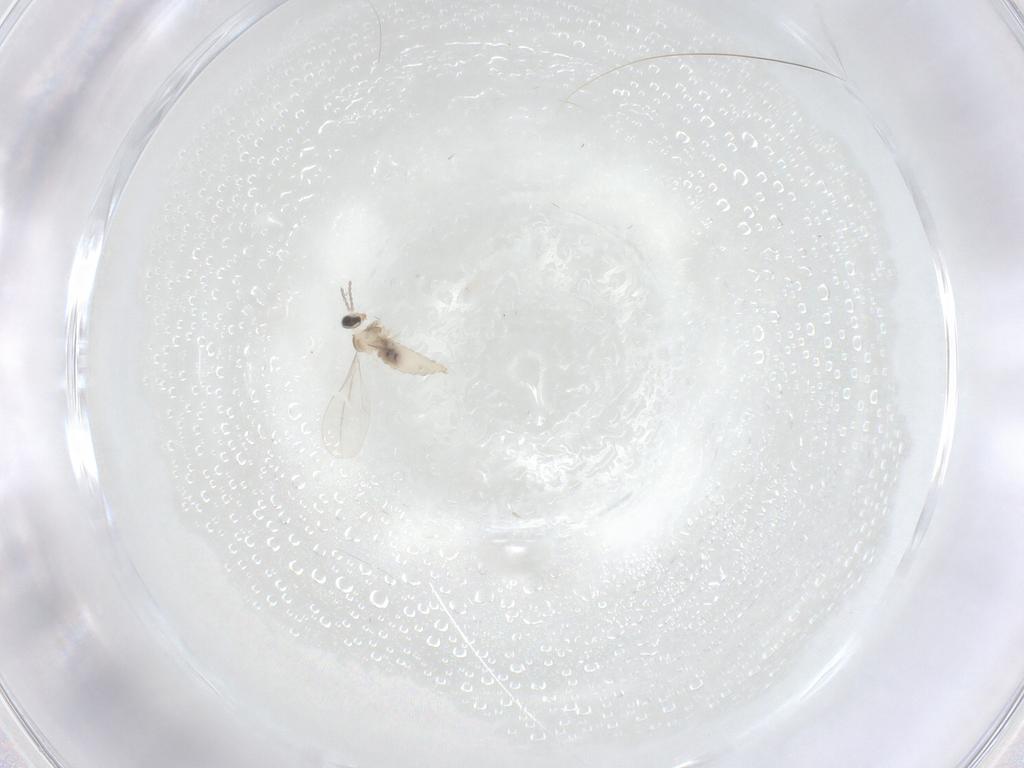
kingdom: Animalia
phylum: Arthropoda
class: Insecta
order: Diptera
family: Cecidomyiidae
